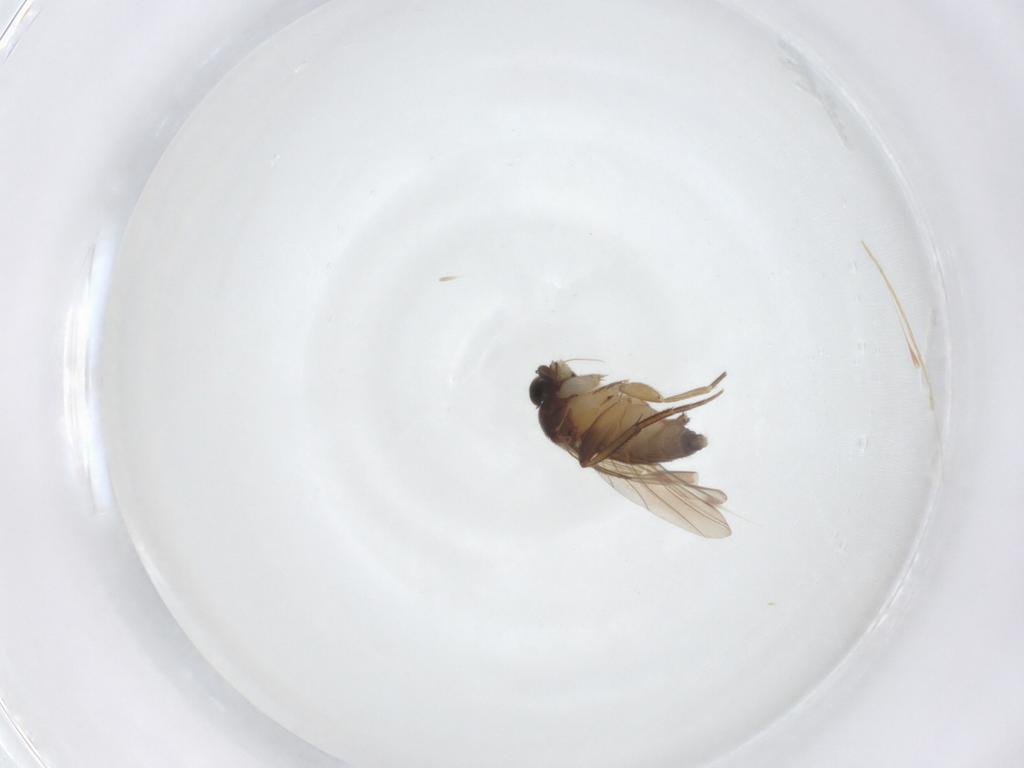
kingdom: Animalia
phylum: Arthropoda
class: Insecta
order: Diptera
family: Phoridae
